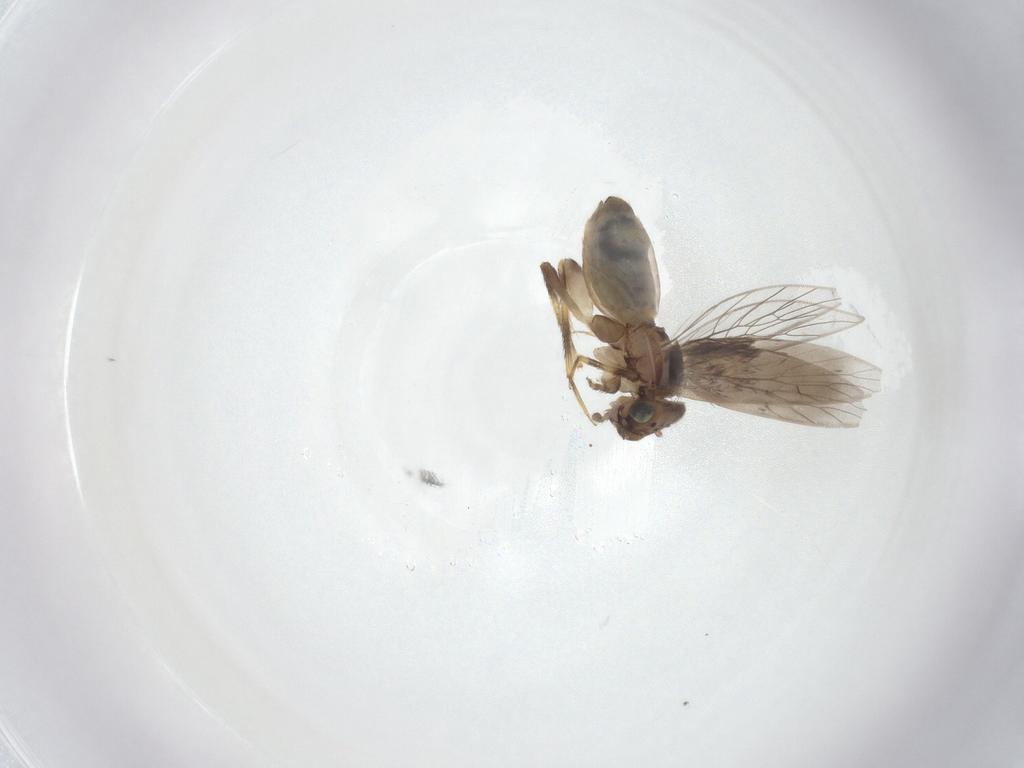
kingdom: Animalia
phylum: Arthropoda
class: Insecta
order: Psocodea
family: Lepidopsocidae
